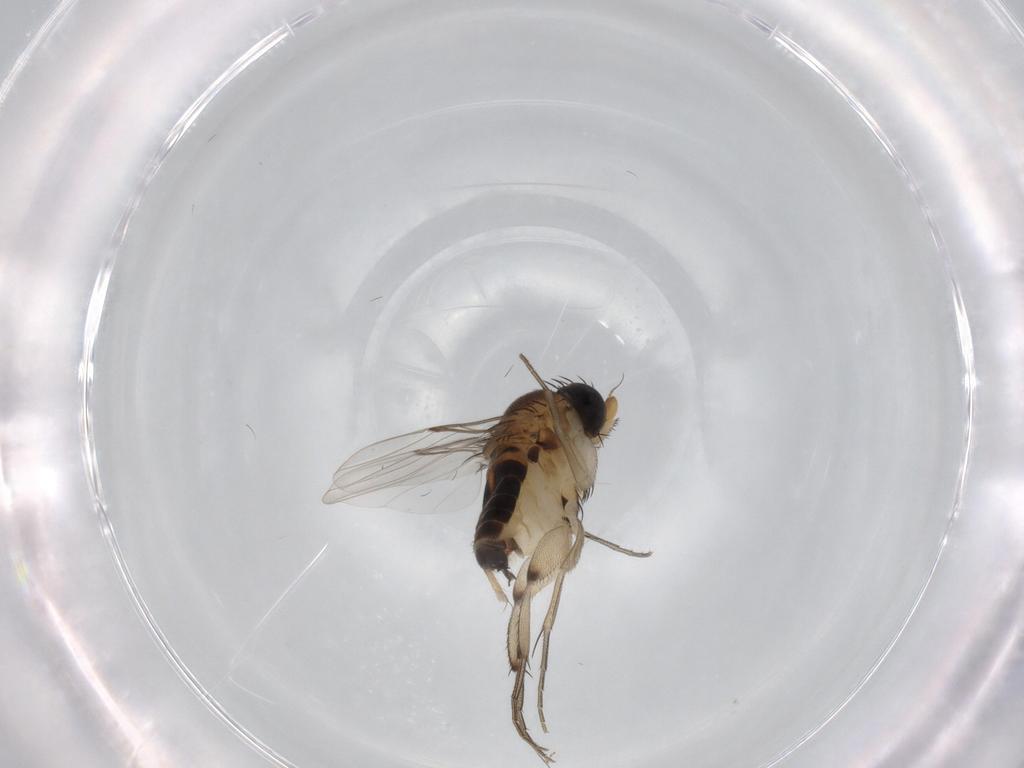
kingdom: Animalia
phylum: Arthropoda
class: Insecta
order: Diptera
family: Phoridae
